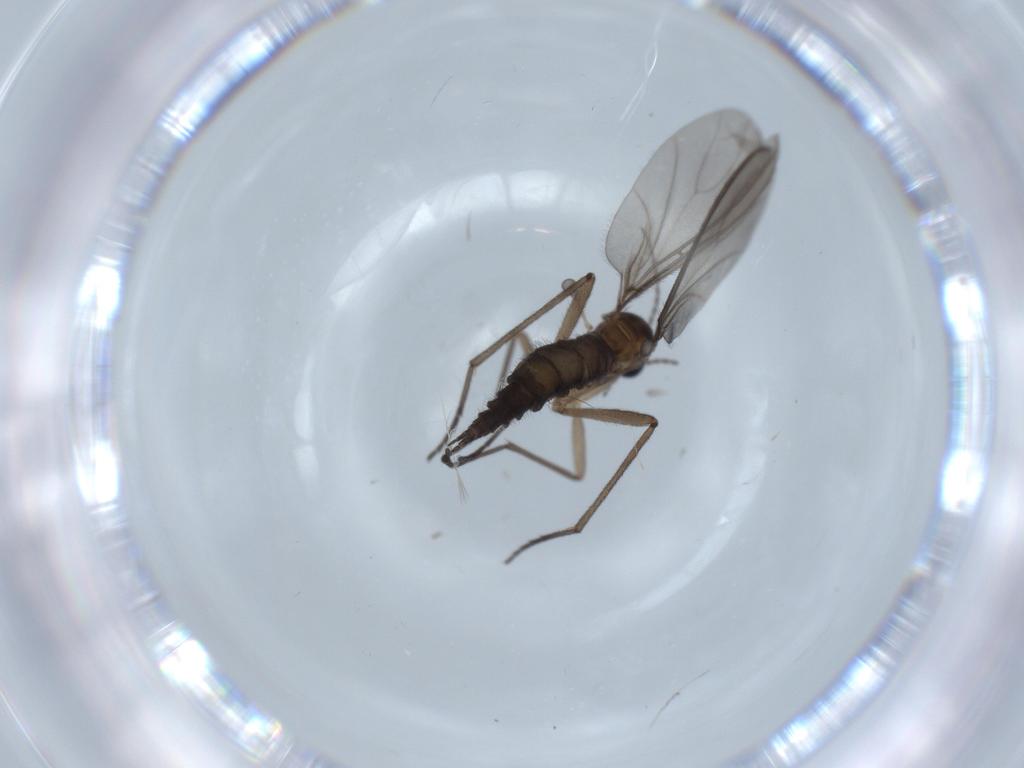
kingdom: Animalia
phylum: Arthropoda
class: Insecta
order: Diptera
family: Sciaridae
